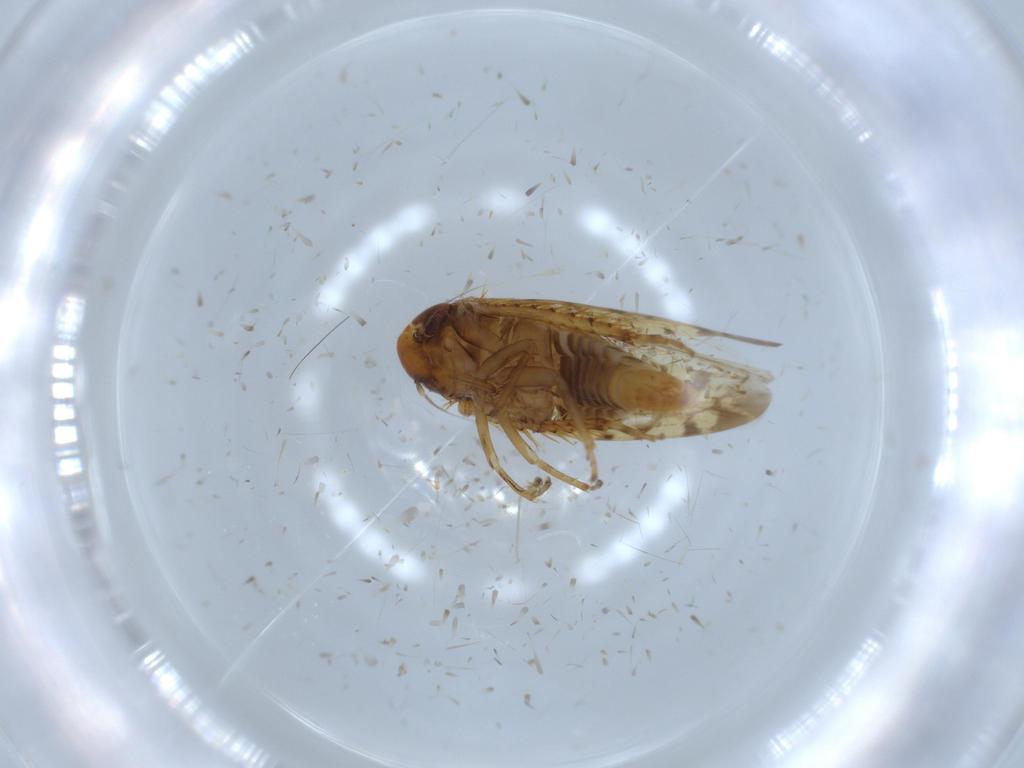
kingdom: Animalia
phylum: Arthropoda
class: Insecta
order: Hemiptera
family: Cicadellidae
